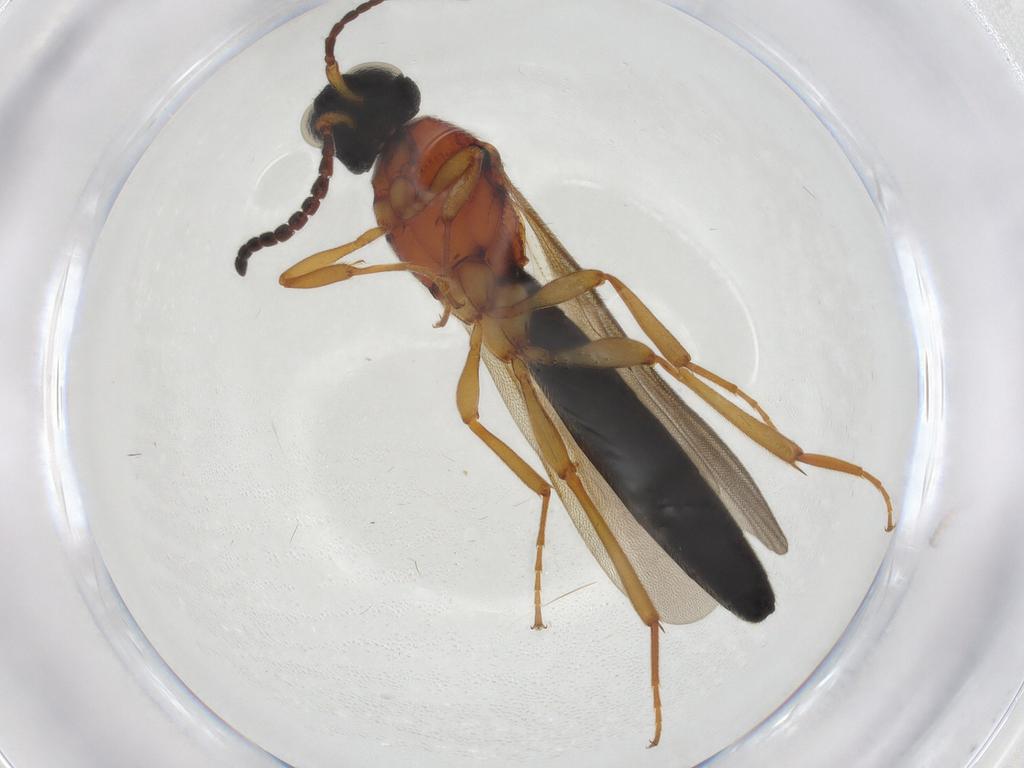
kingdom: Animalia
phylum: Arthropoda
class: Insecta
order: Hymenoptera
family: Scelionidae
